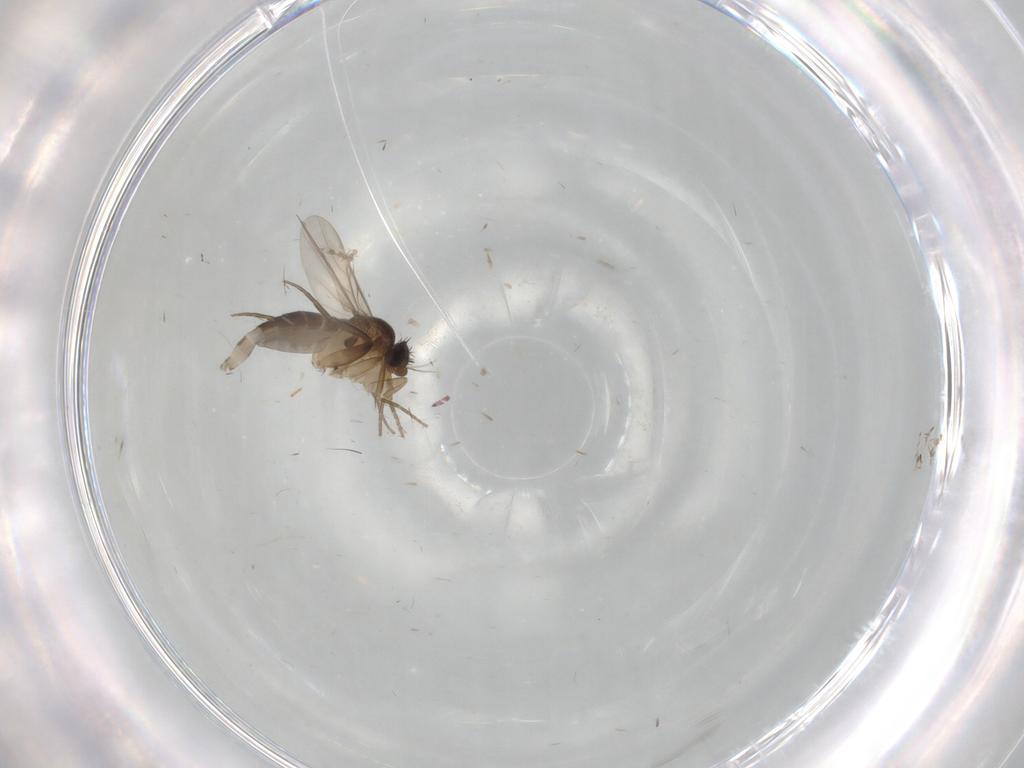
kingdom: Animalia
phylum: Arthropoda
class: Insecta
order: Diptera
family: Phoridae
